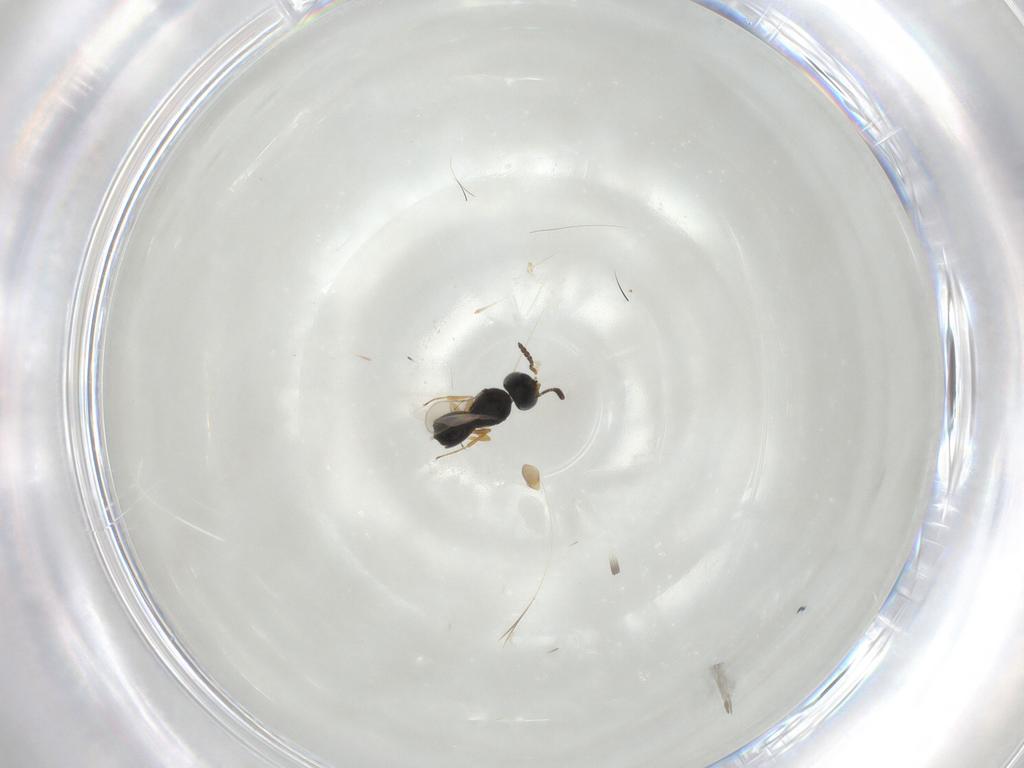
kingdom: Animalia
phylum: Arthropoda
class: Insecta
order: Hymenoptera
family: Scelionidae
